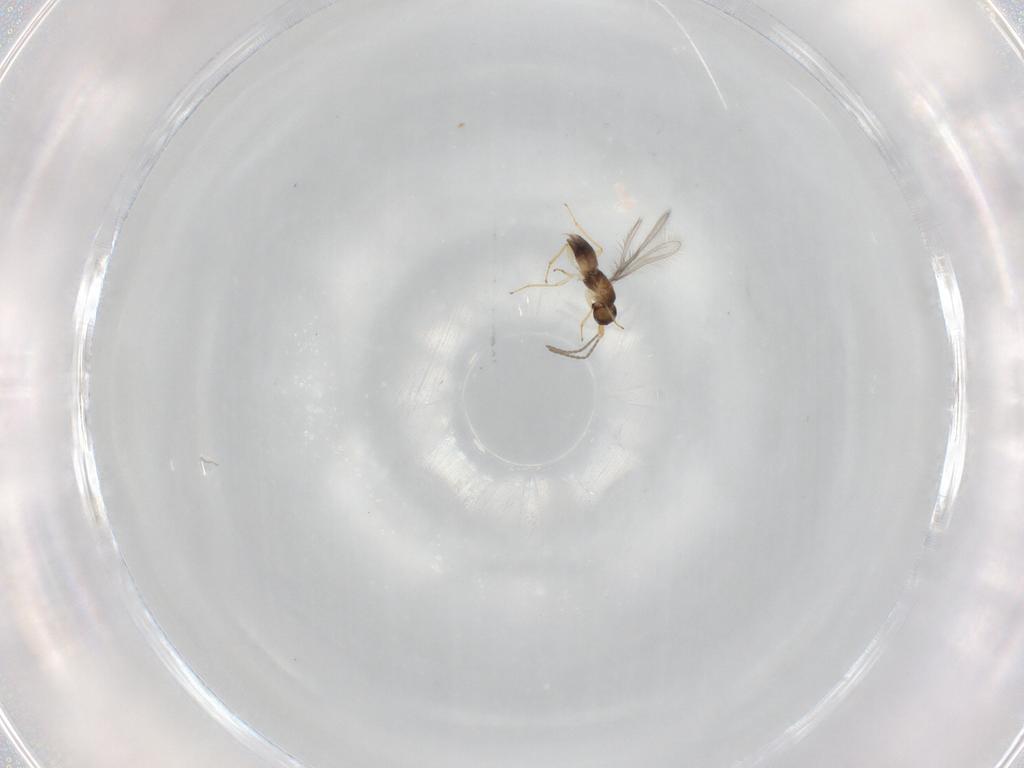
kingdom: Animalia
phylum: Arthropoda
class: Insecta
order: Hymenoptera
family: Mymaridae
